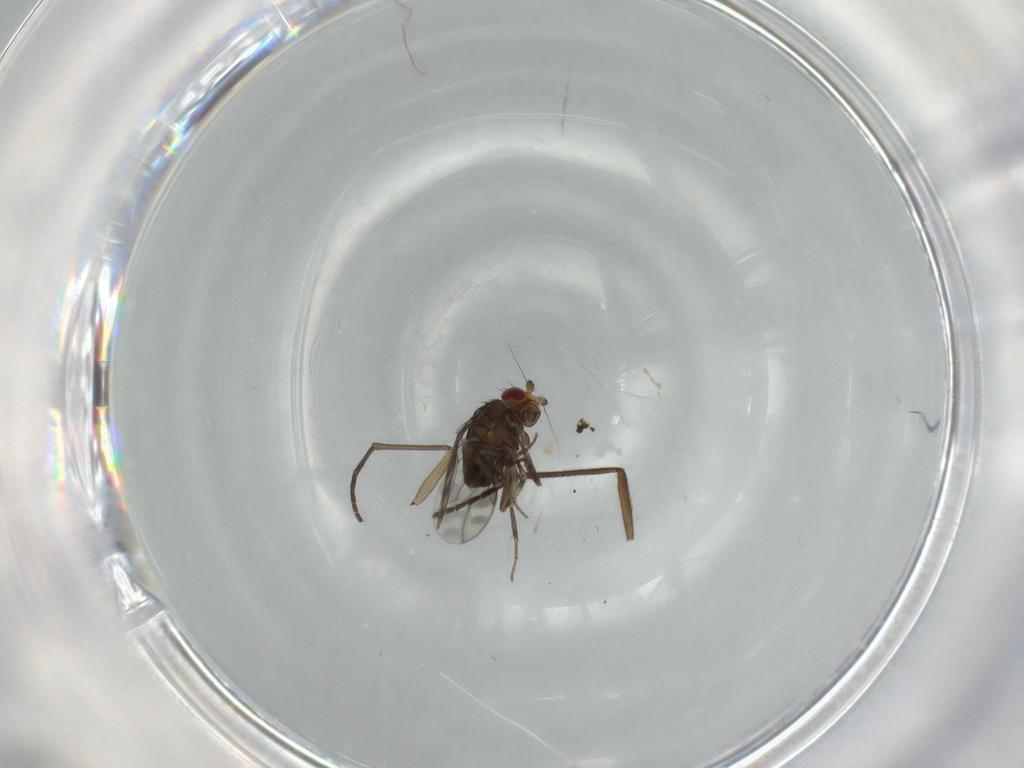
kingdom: Animalia
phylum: Arthropoda
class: Insecta
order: Diptera
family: Sphaeroceridae
